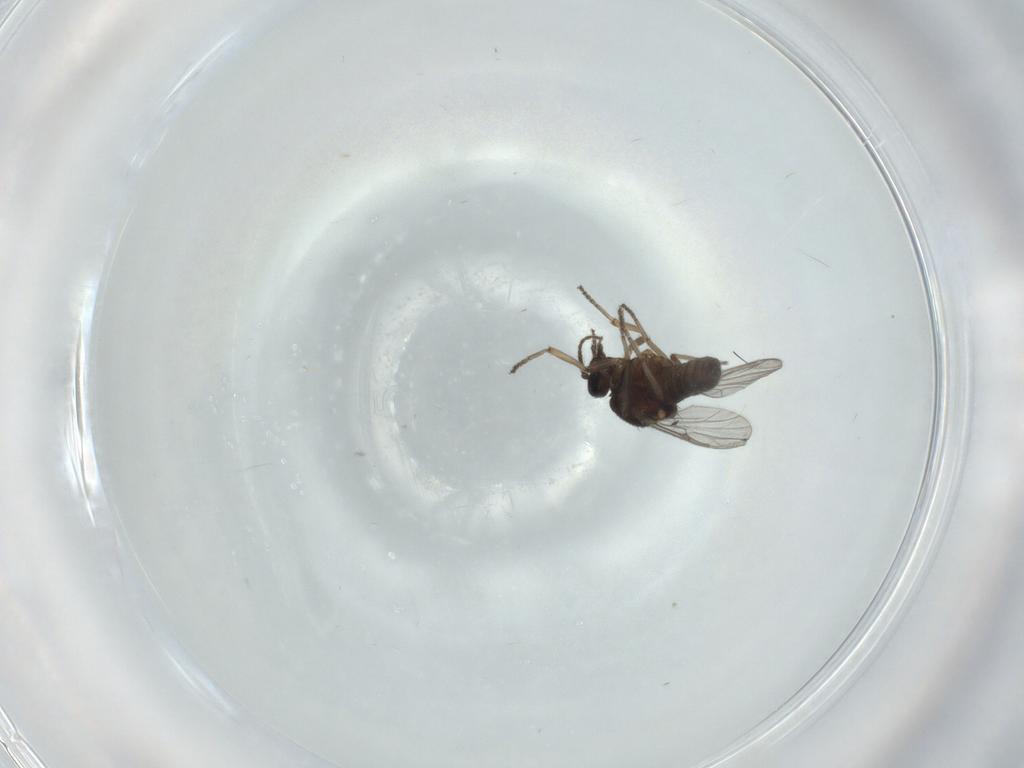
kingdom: Animalia
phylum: Arthropoda
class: Insecta
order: Diptera
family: Ceratopogonidae
